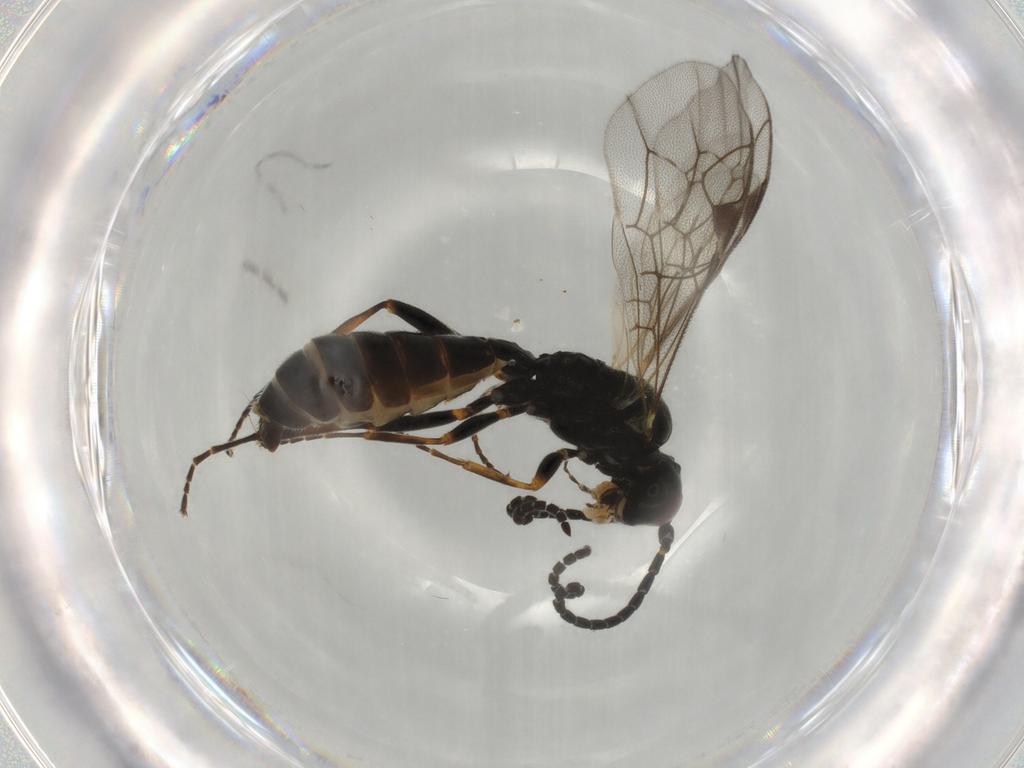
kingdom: Animalia
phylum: Arthropoda
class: Insecta
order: Hymenoptera
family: Ichneumonidae
